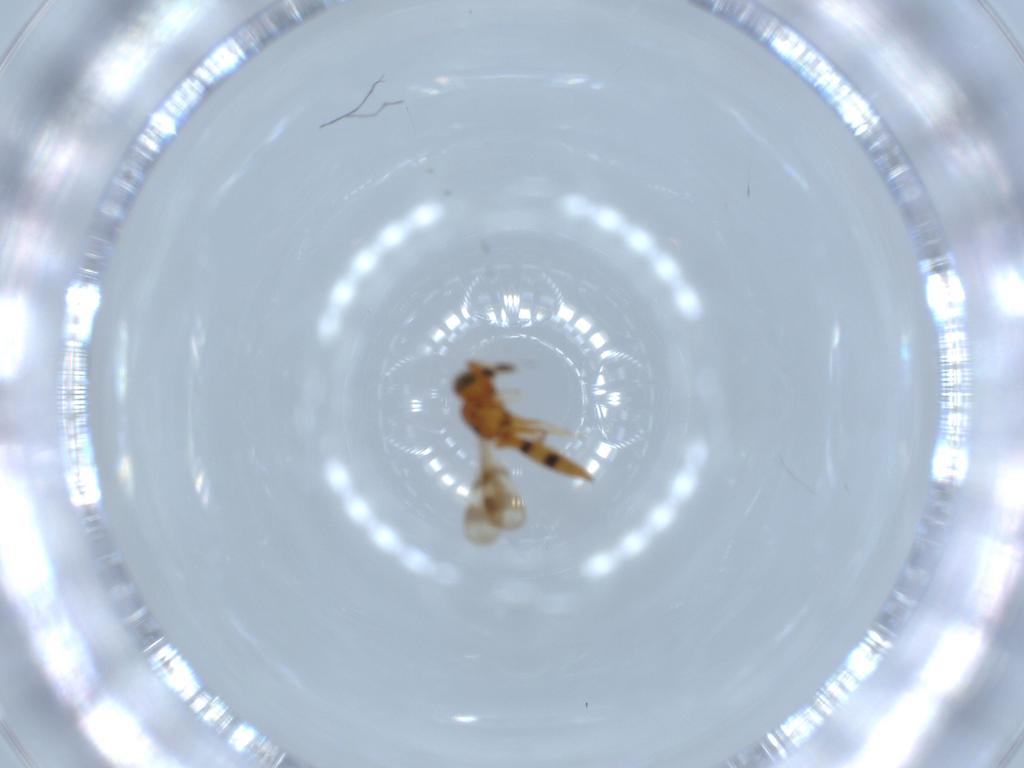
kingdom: Animalia
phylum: Arthropoda
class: Insecta
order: Hymenoptera
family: Scelionidae
